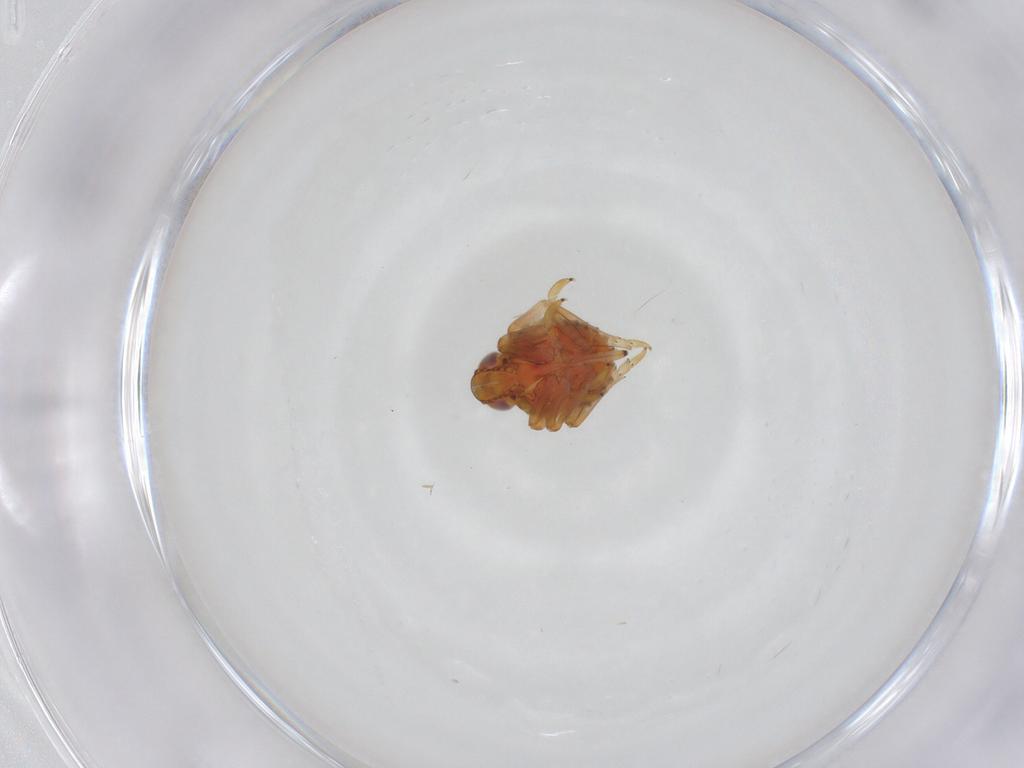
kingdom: Animalia
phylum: Arthropoda
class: Insecta
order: Hemiptera
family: Issidae
